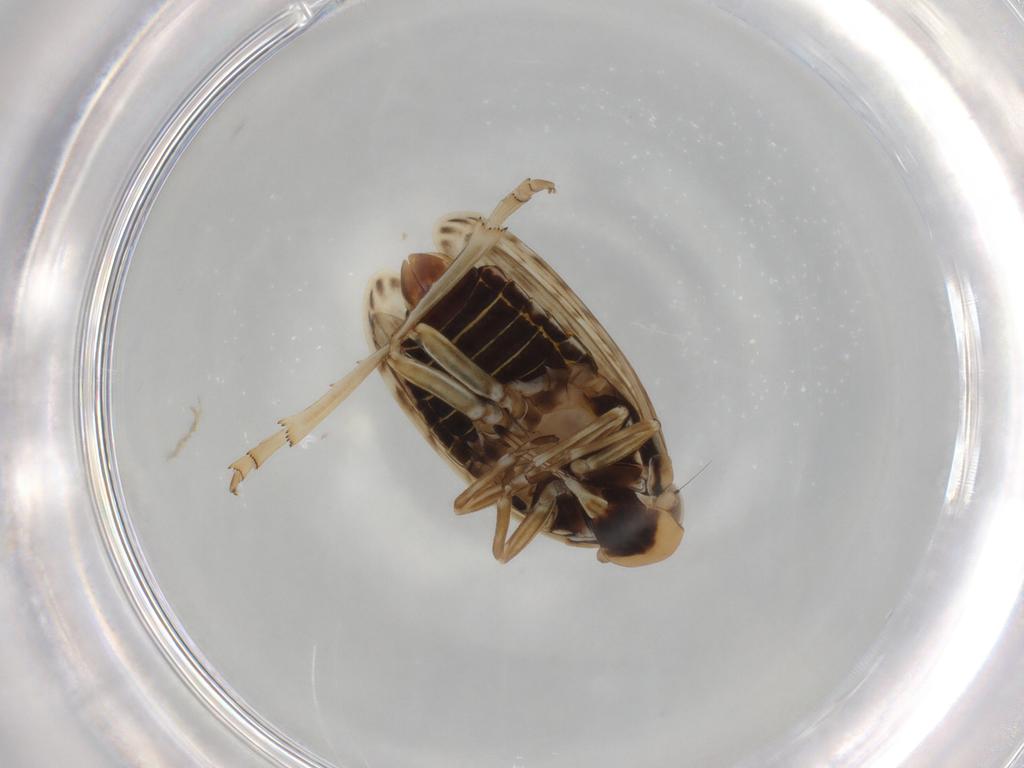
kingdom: Animalia
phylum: Arthropoda
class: Insecta
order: Hemiptera
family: Achilidae
